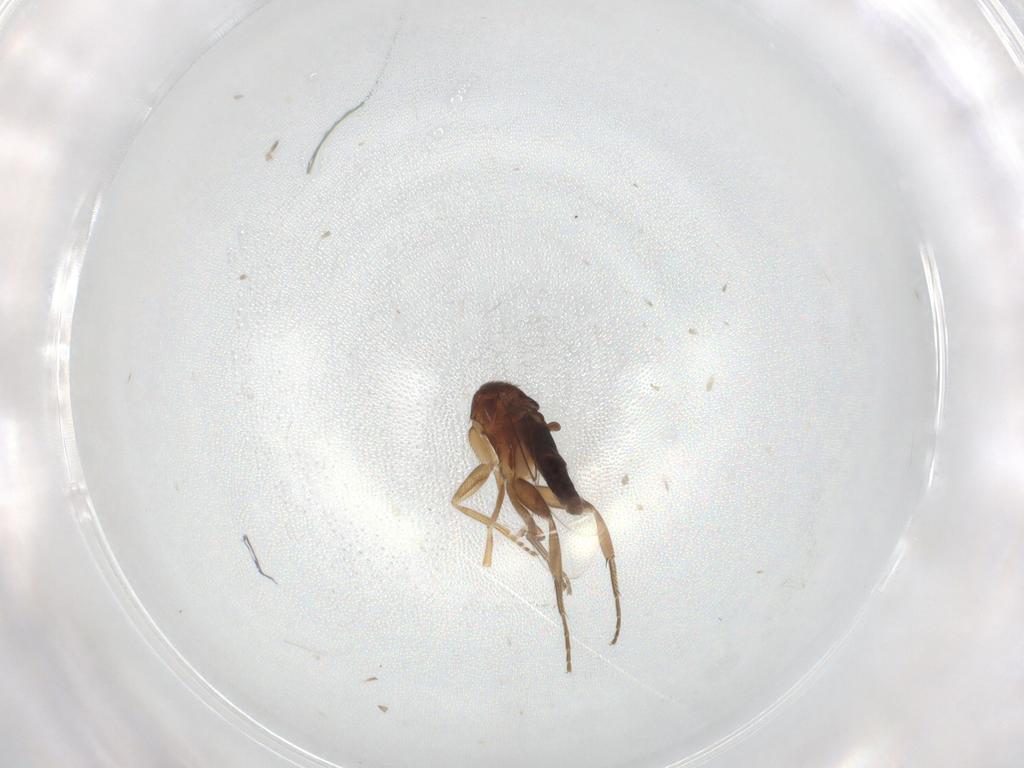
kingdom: Animalia
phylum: Arthropoda
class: Insecta
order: Diptera
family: Phoridae
